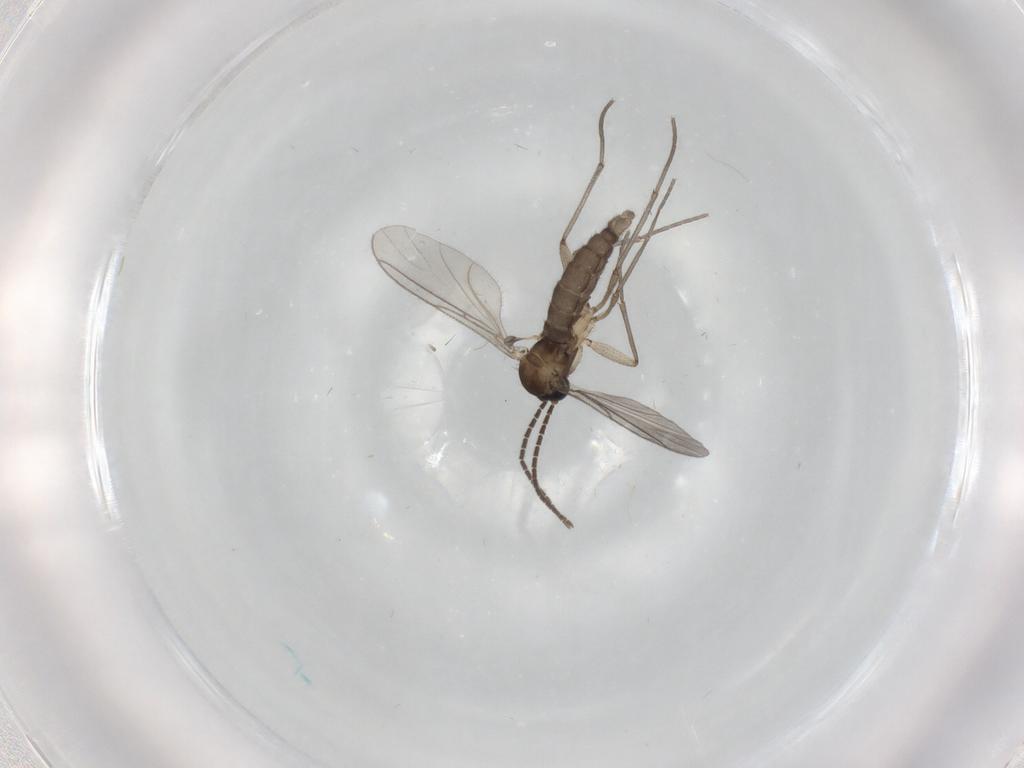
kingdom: Animalia
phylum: Arthropoda
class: Insecta
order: Diptera
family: Sciaridae
